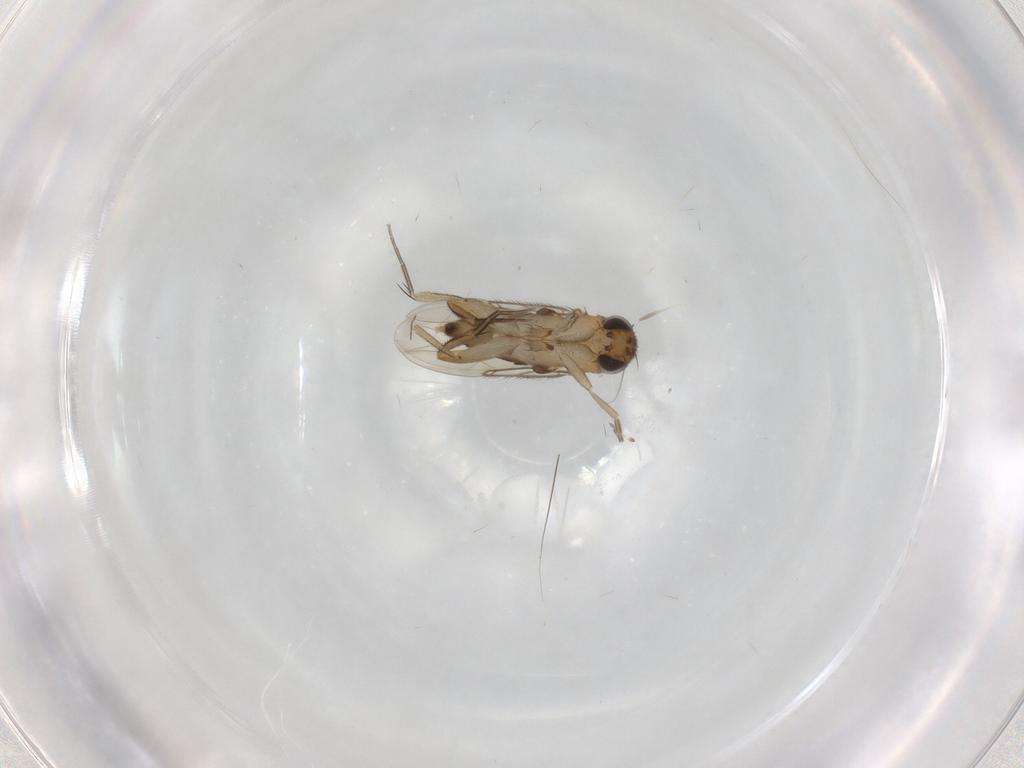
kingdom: Animalia
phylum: Arthropoda
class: Insecta
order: Diptera
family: Phoridae
